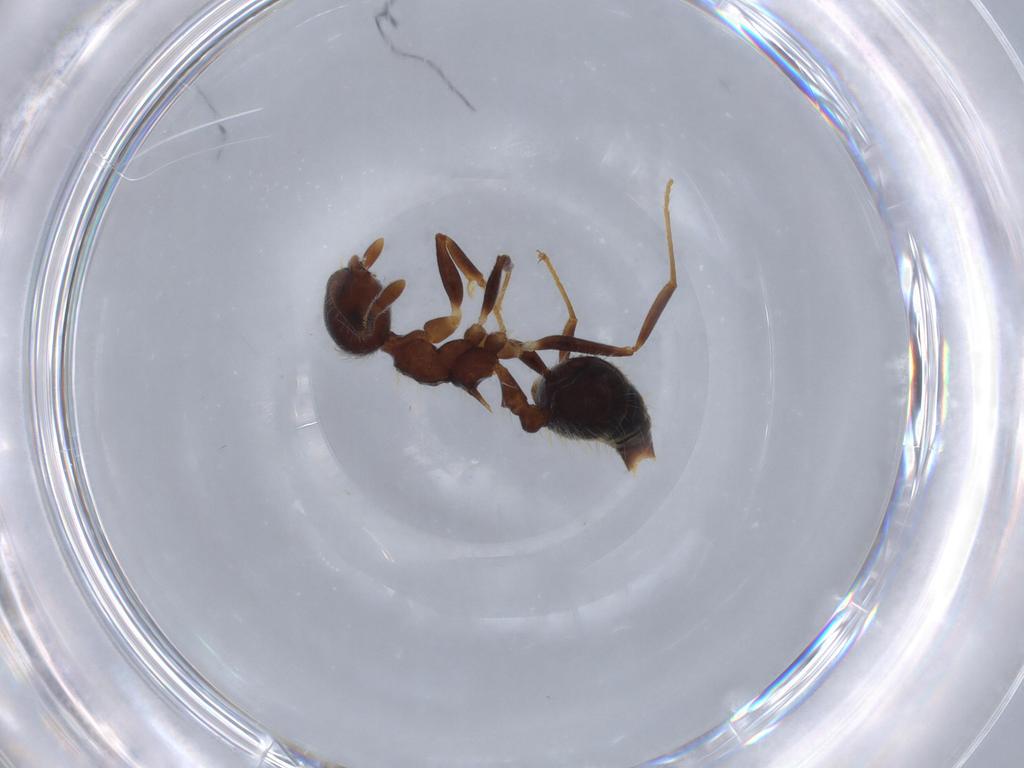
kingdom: Animalia
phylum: Arthropoda
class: Insecta
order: Hymenoptera
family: Formicidae
